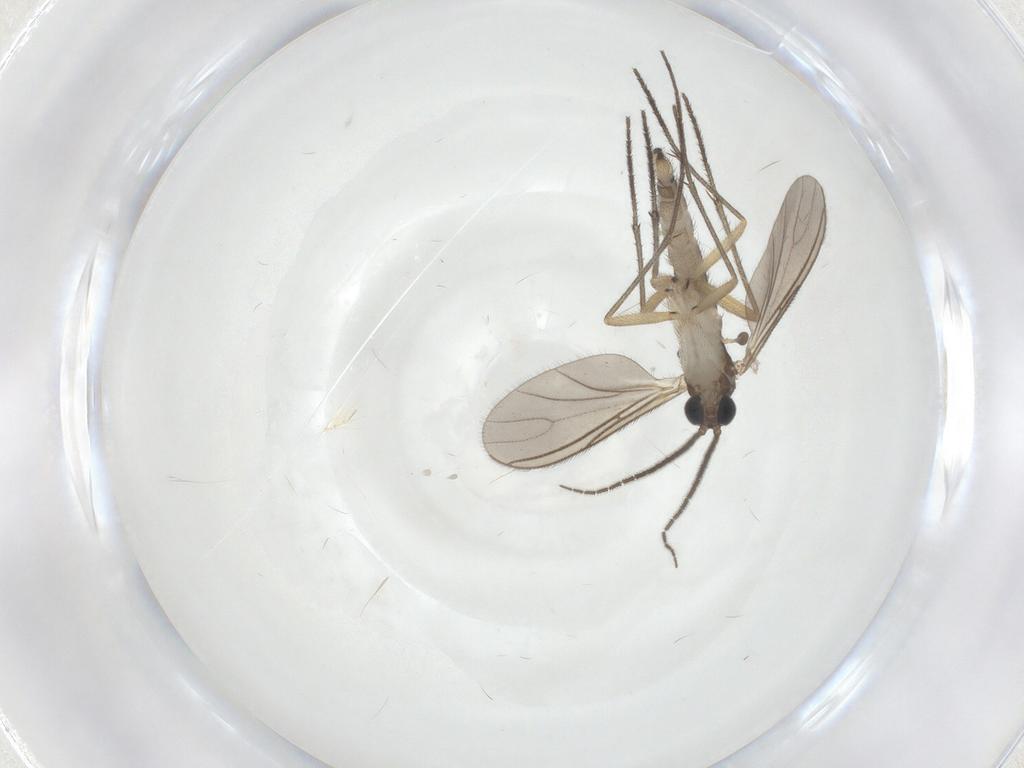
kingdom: Animalia
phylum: Arthropoda
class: Insecta
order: Diptera
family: Sciaridae
